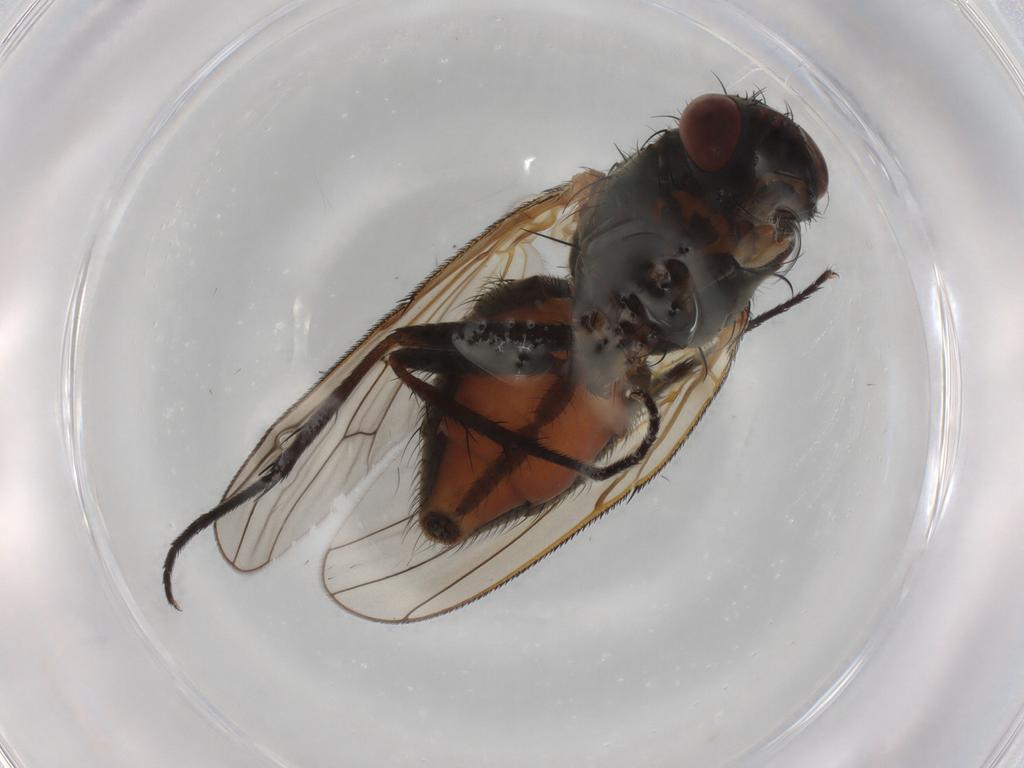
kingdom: Animalia
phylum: Arthropoda
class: Insecta
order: Diptera
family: Anthomyiidae
